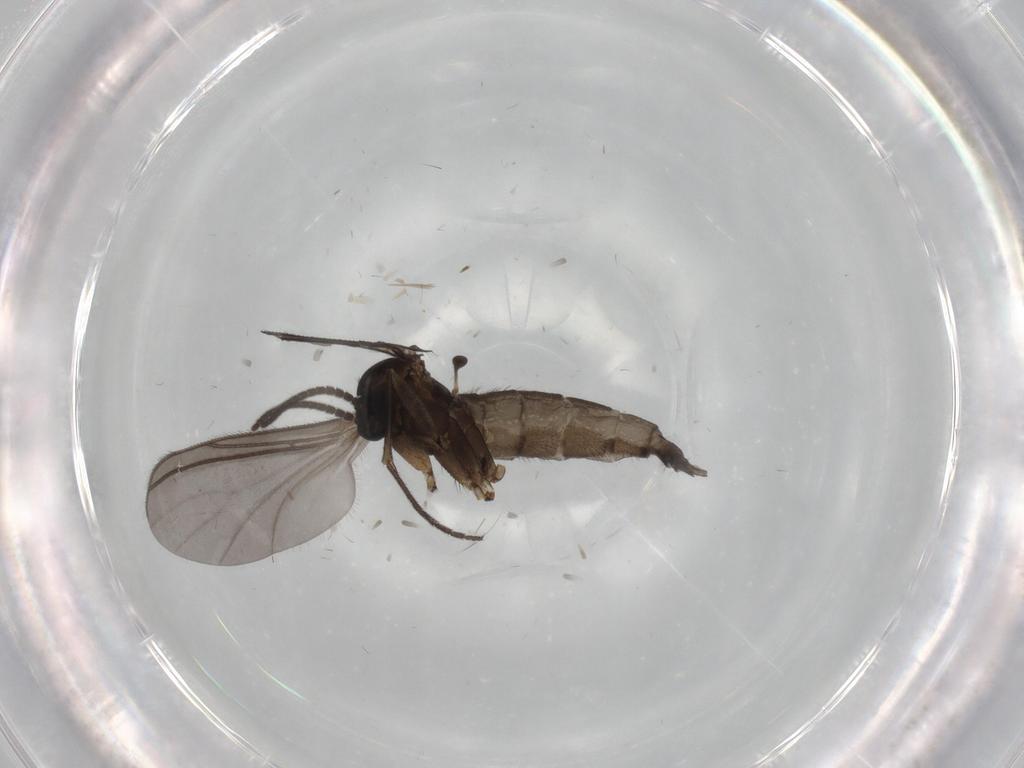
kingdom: Animalia
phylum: Arthropoda
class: Insecta
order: Diptera
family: Sciaridae
